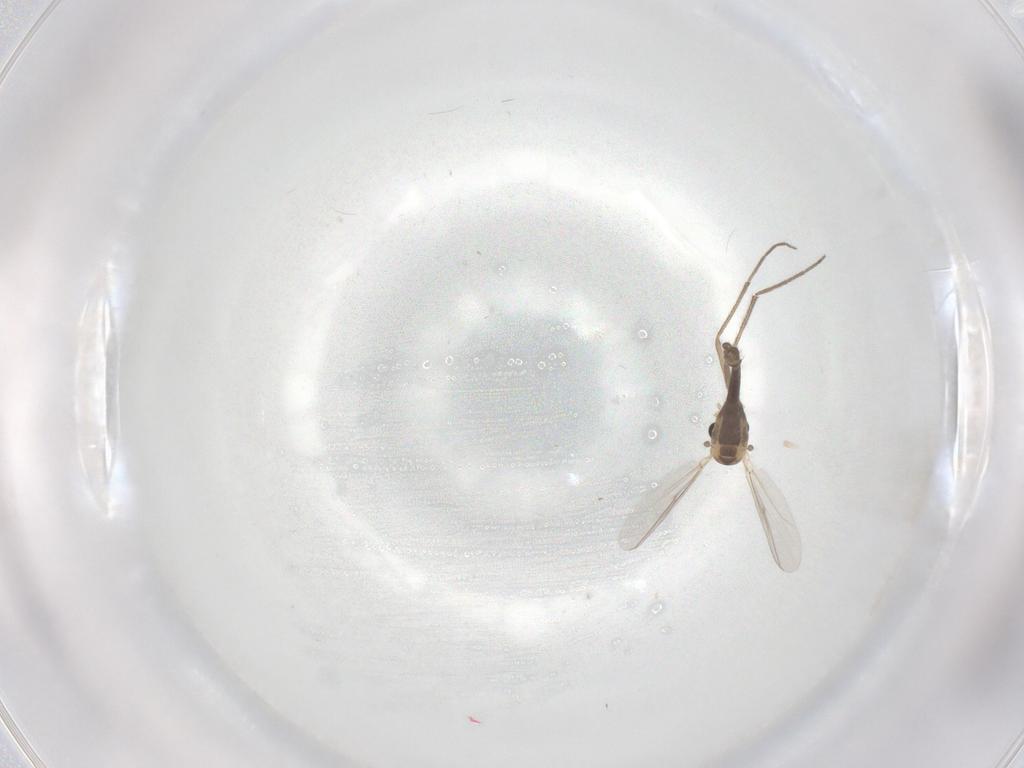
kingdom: Animalia
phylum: Arthropoda
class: Insecta
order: Diptera
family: Chironomidae
